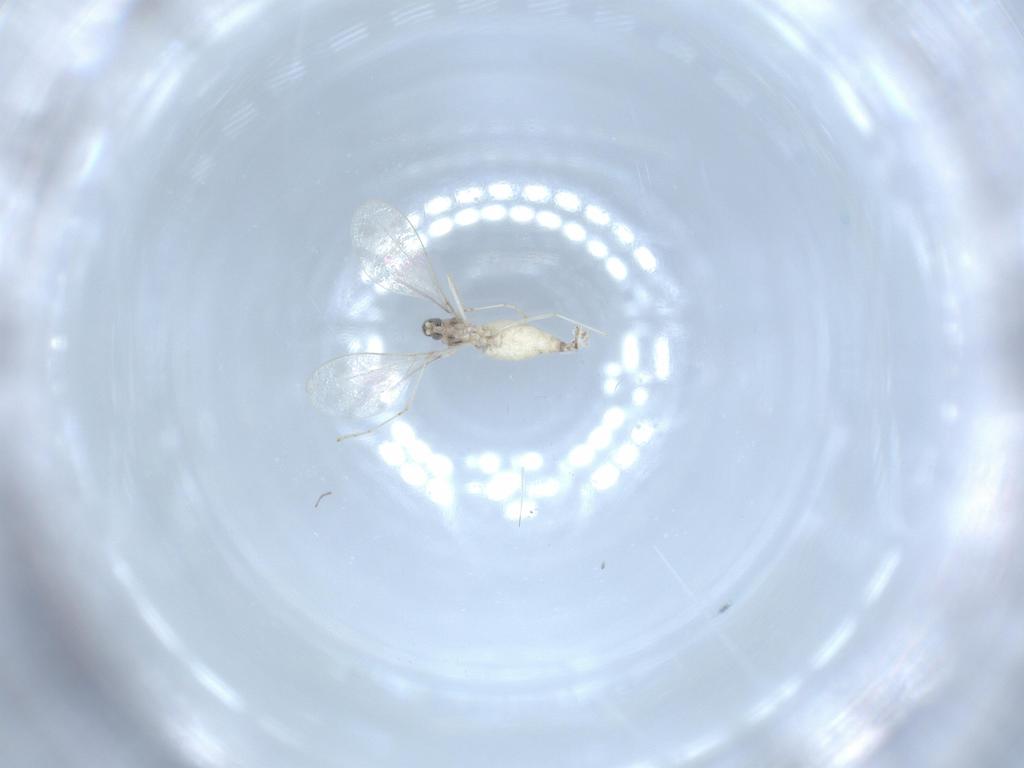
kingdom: Animalia
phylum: Arthropoda
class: Insecta
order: Diptera
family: Cecidomyiidae
